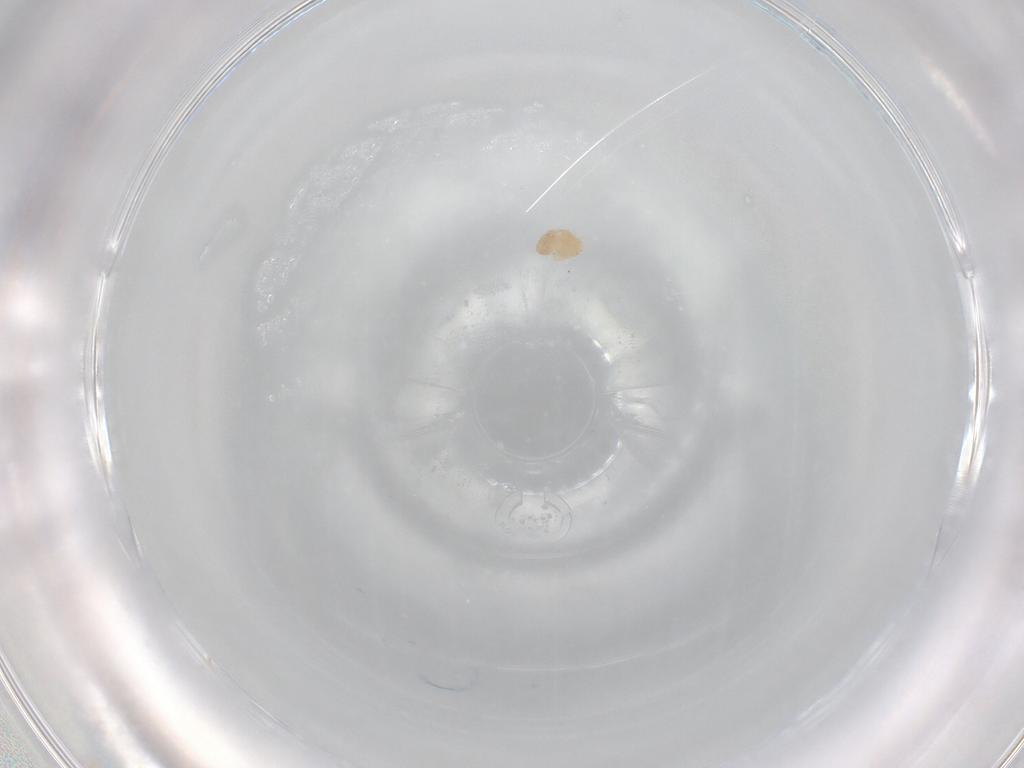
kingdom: Animalia
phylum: Arthropoda
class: Arachnida
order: Trombidiformes
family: Microtrombidiidae
